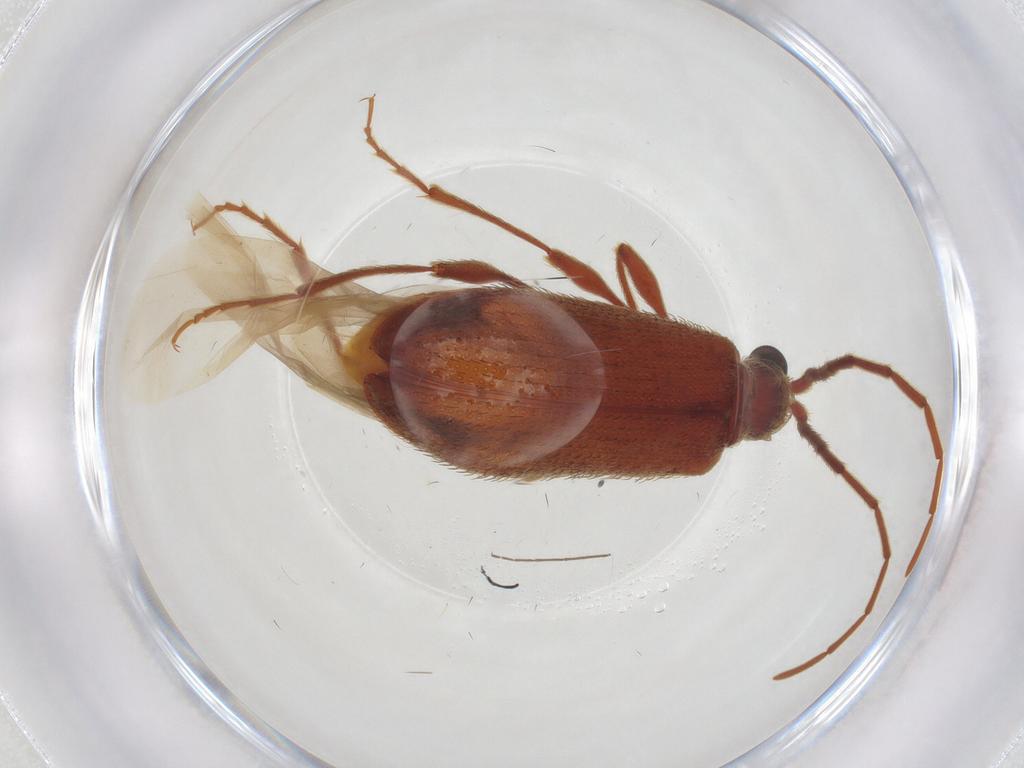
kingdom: Animalia
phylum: Arthropoda
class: Insecta
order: Coleoptera
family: Ptinidae
